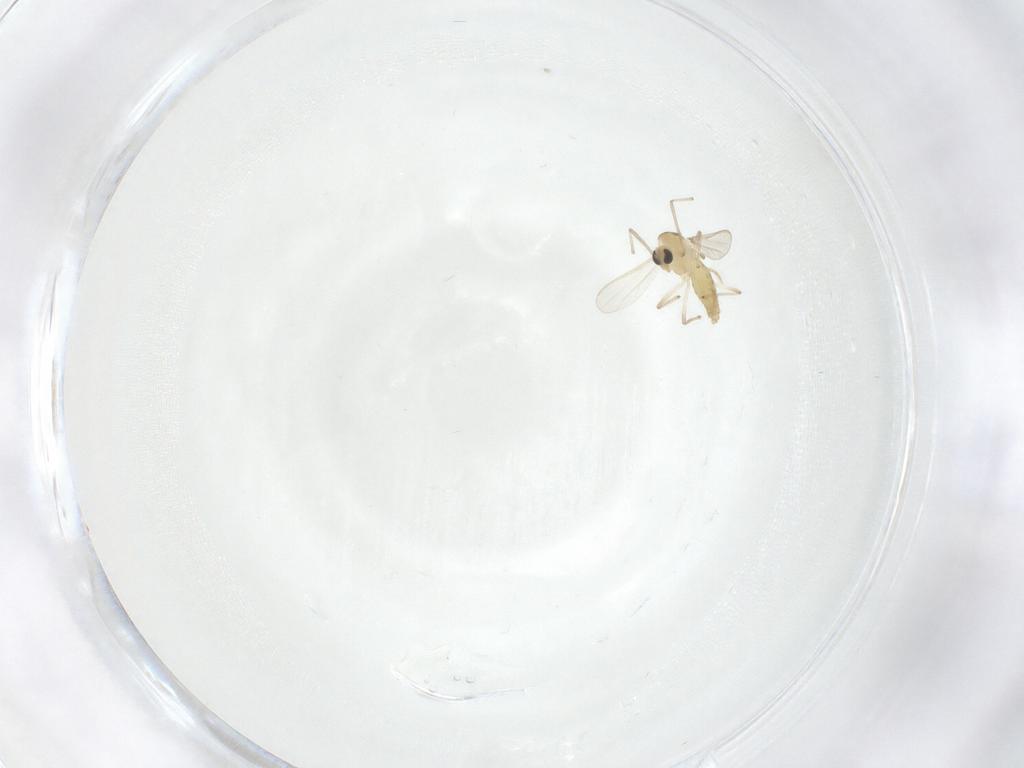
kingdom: Animalia
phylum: Arthropoda
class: Insecta
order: Diptera
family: Chironomidae
